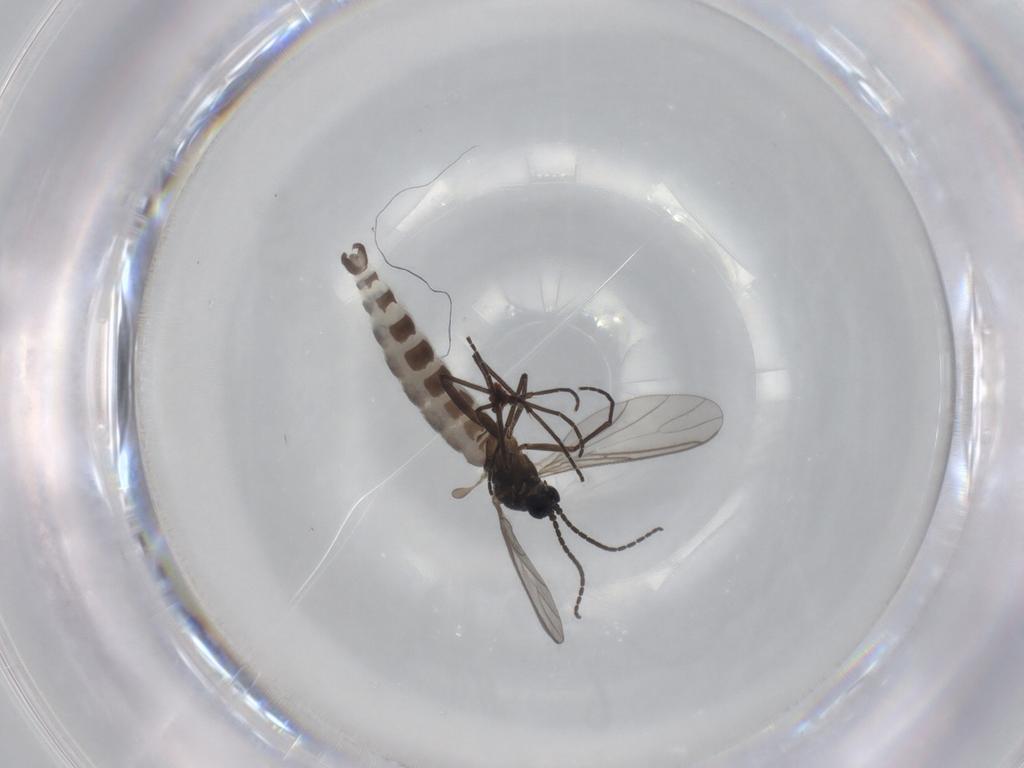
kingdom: Animalia
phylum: Arthropoda
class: Insecta
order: Diptera
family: Sciaridae
